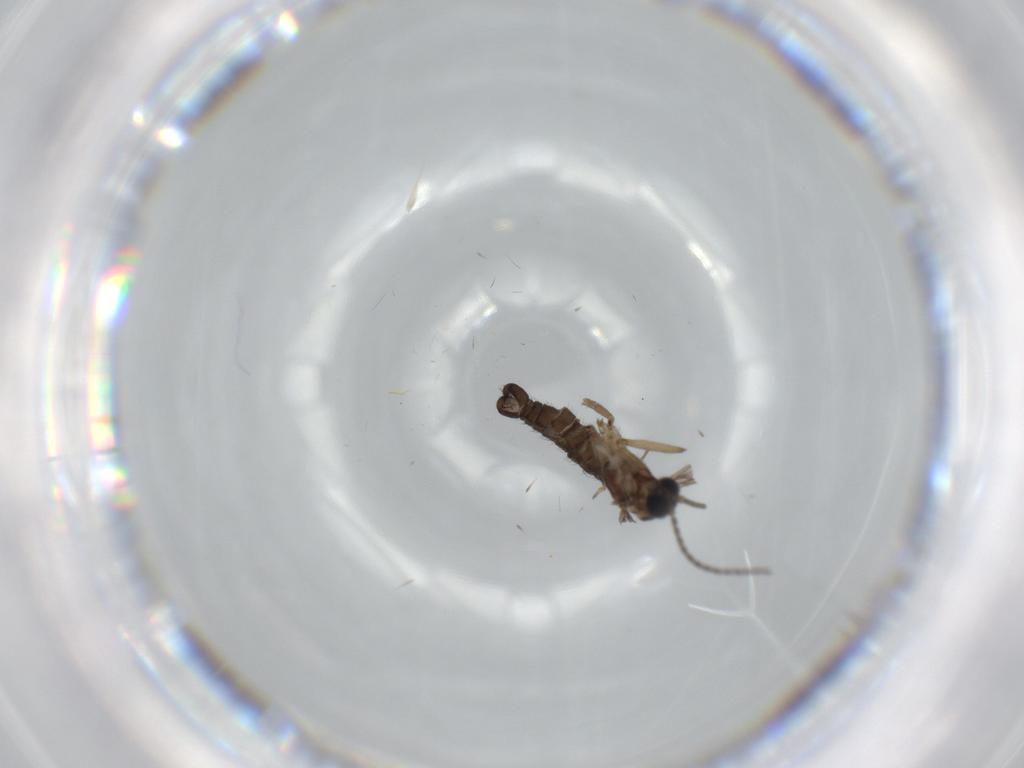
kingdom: Animalia
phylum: Arthropoda
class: Insecta
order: Diptera
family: Sciaridae
